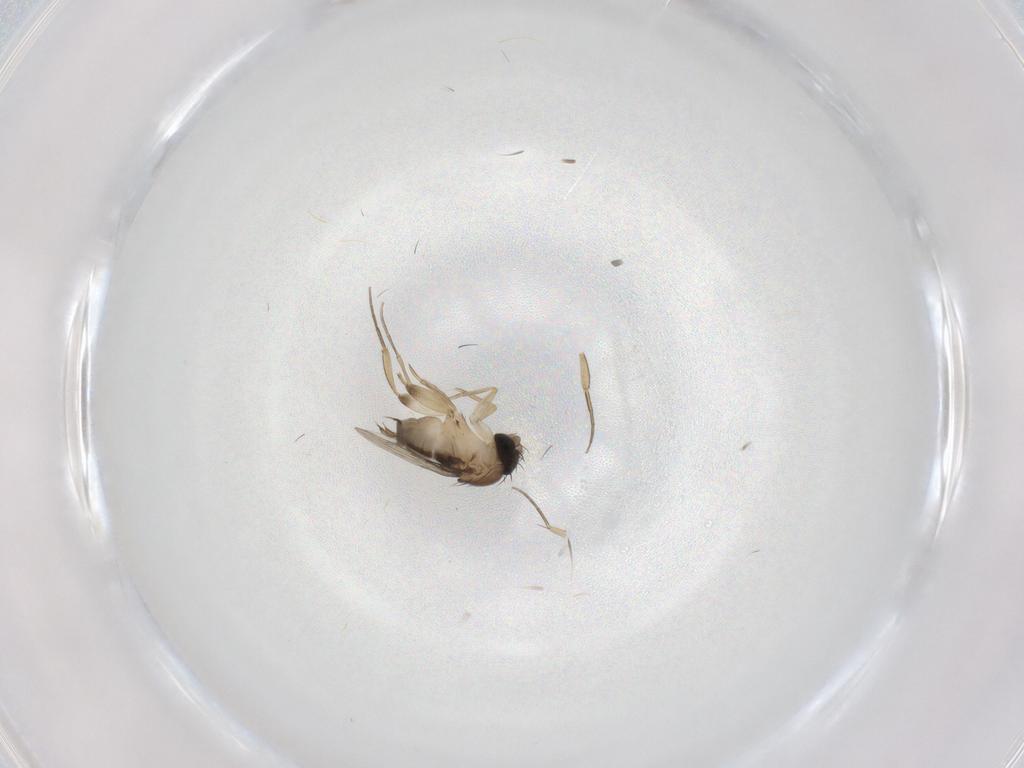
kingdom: Animalia
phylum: Arthropoda
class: Insecta
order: Diptera
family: Phoridae
